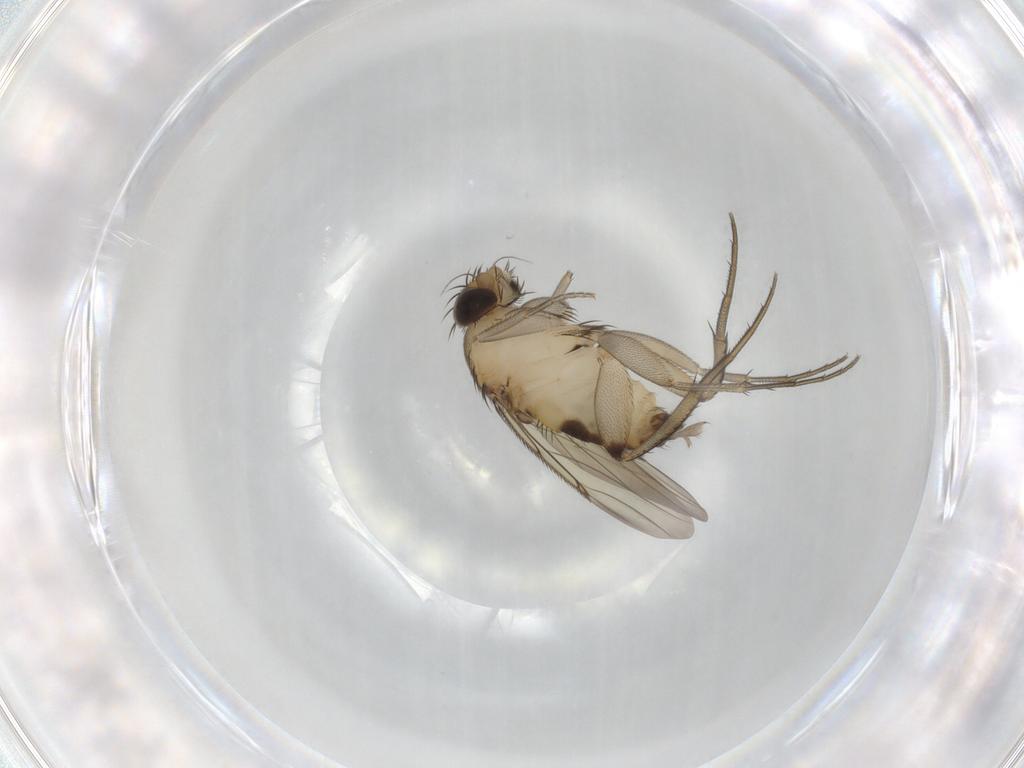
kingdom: Animalia
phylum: Arthropoda
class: Insecta
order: Diptera
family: Phoridae
